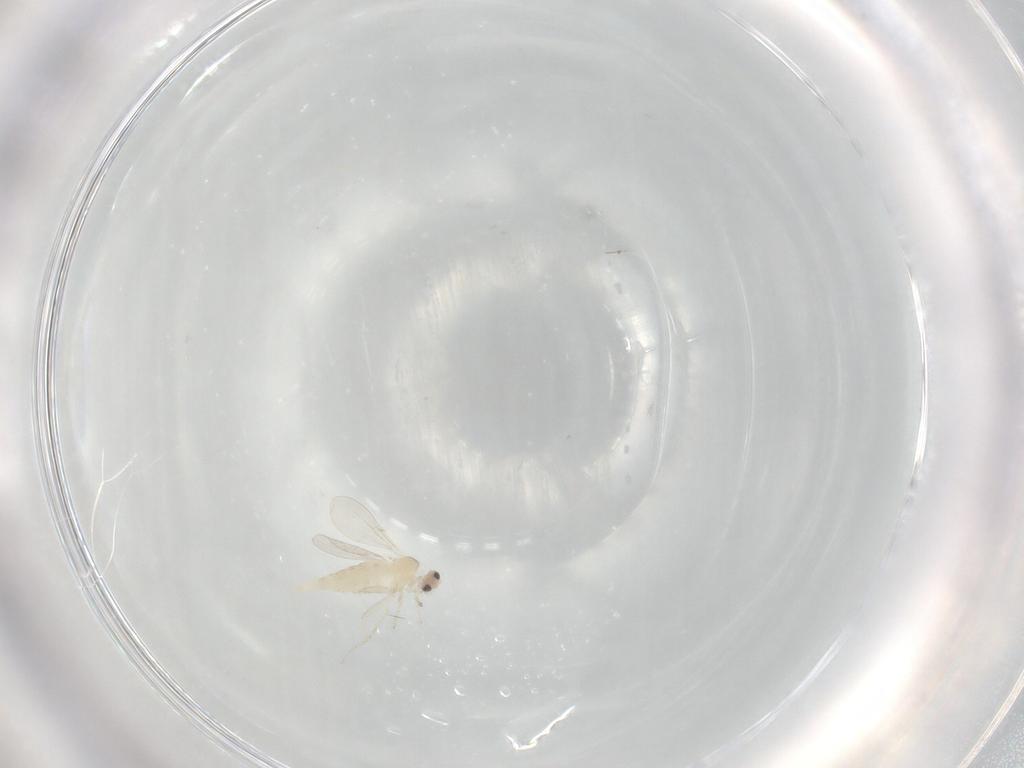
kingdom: Animalia
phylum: Arthropoda
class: Insecta
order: Diptera
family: Cecidomyiidae
